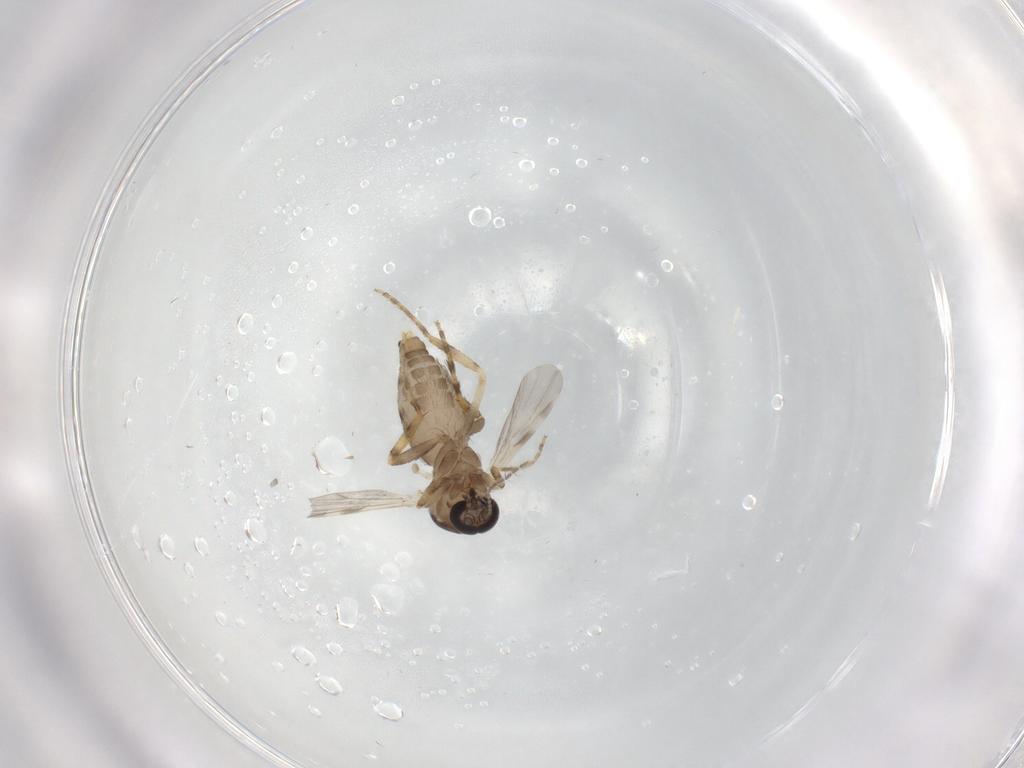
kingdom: Animalia
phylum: Arthropoda
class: Insecta
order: Diptera
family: Ceratopogonidae
